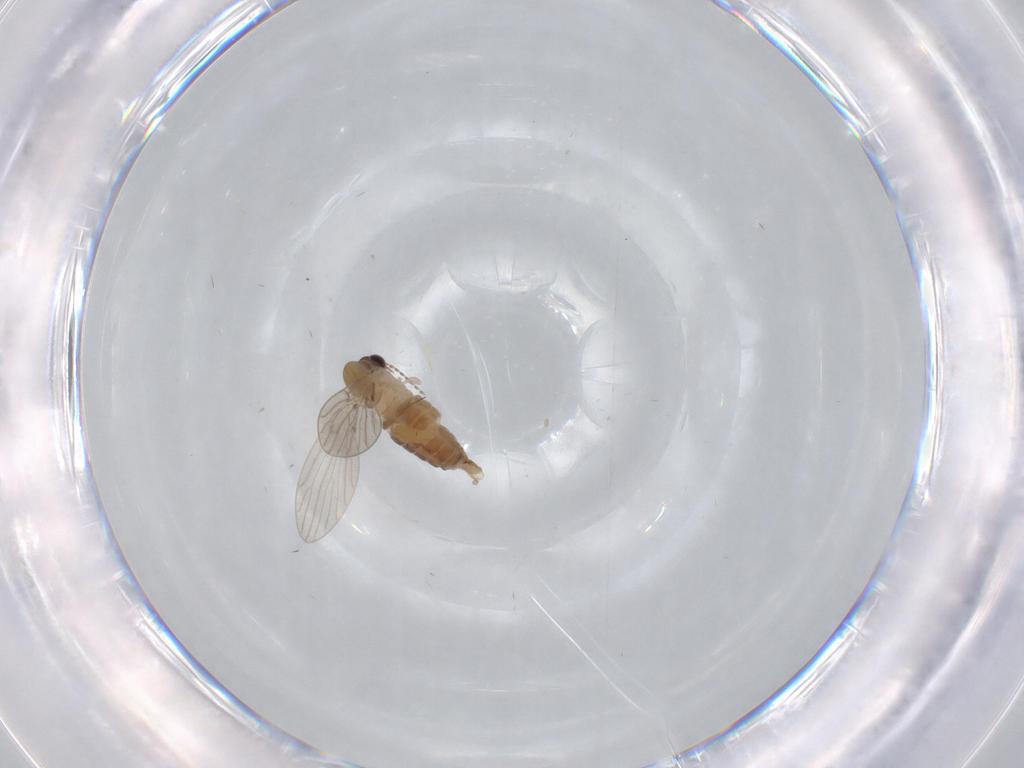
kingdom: Animalia
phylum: Arthropoda
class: Insecta
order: Diptera
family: Psychodidae
